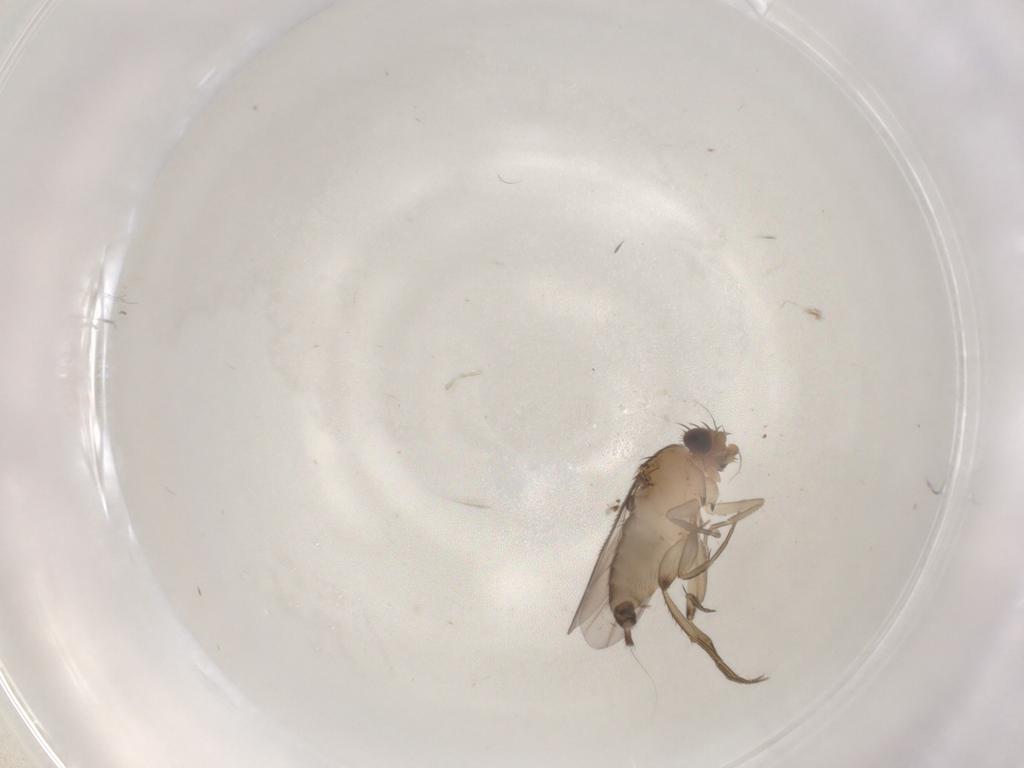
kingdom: Animalia
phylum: Arthropoda
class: Insecta
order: Diptera
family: Phoridae
